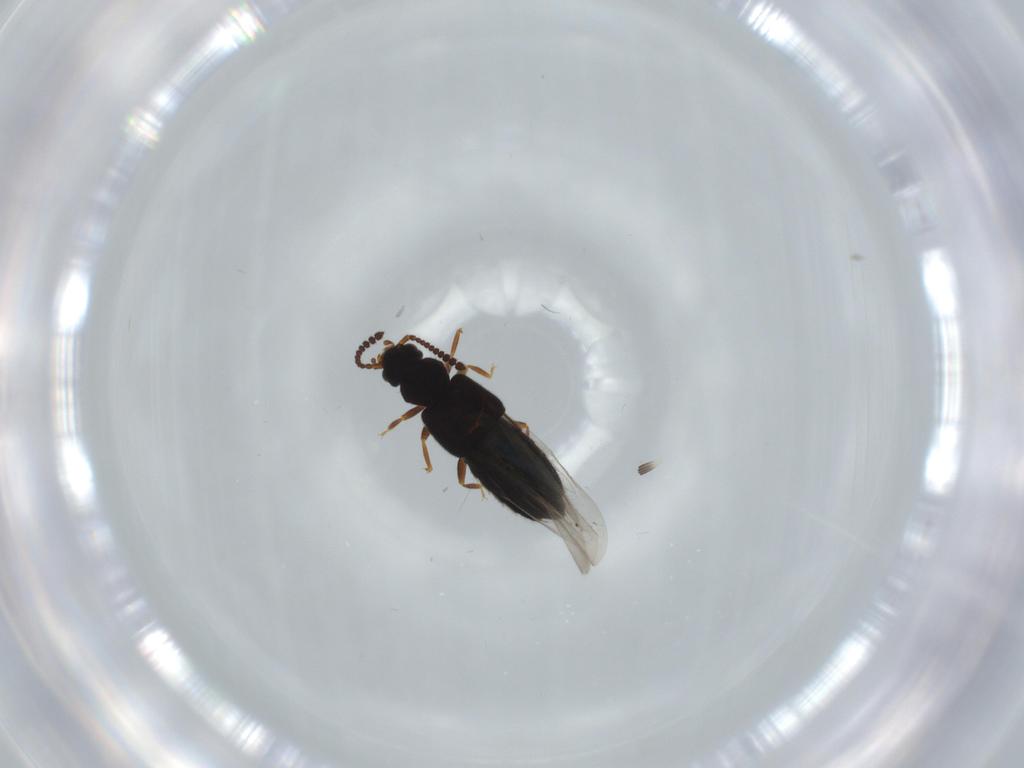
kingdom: Animalia
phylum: Arthropoda
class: Insecta
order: Coleoptera
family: Staphylinidae
